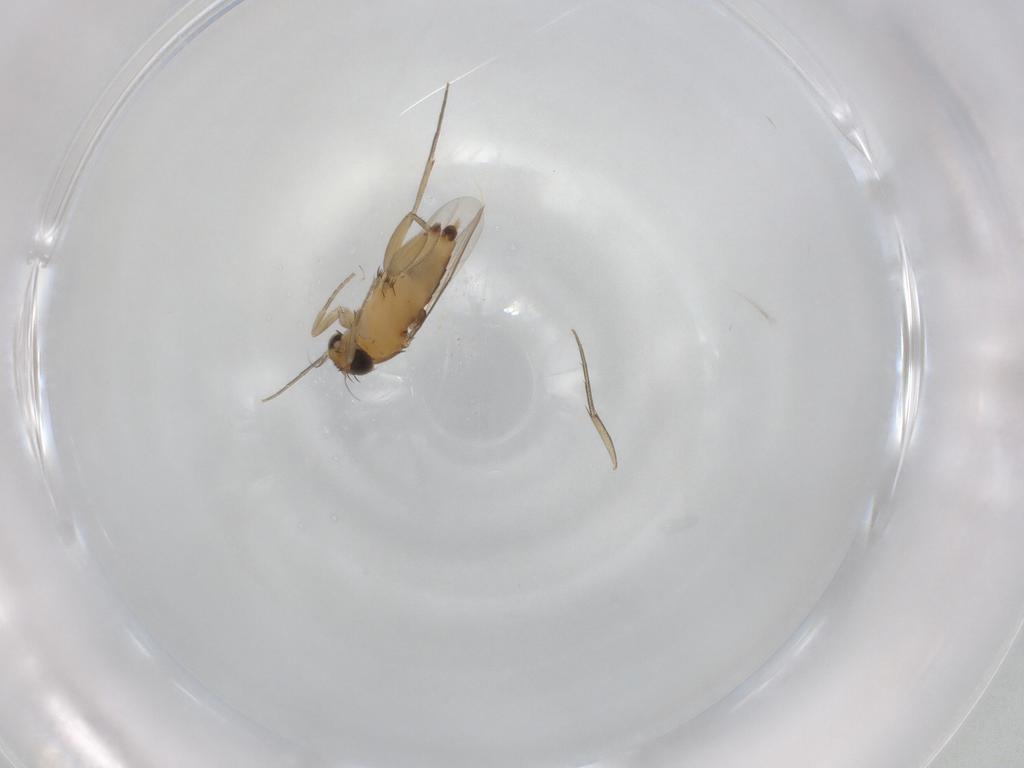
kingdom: Animalia
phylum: Arthropoda
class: Insecta
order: Diptera
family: Phoridae
